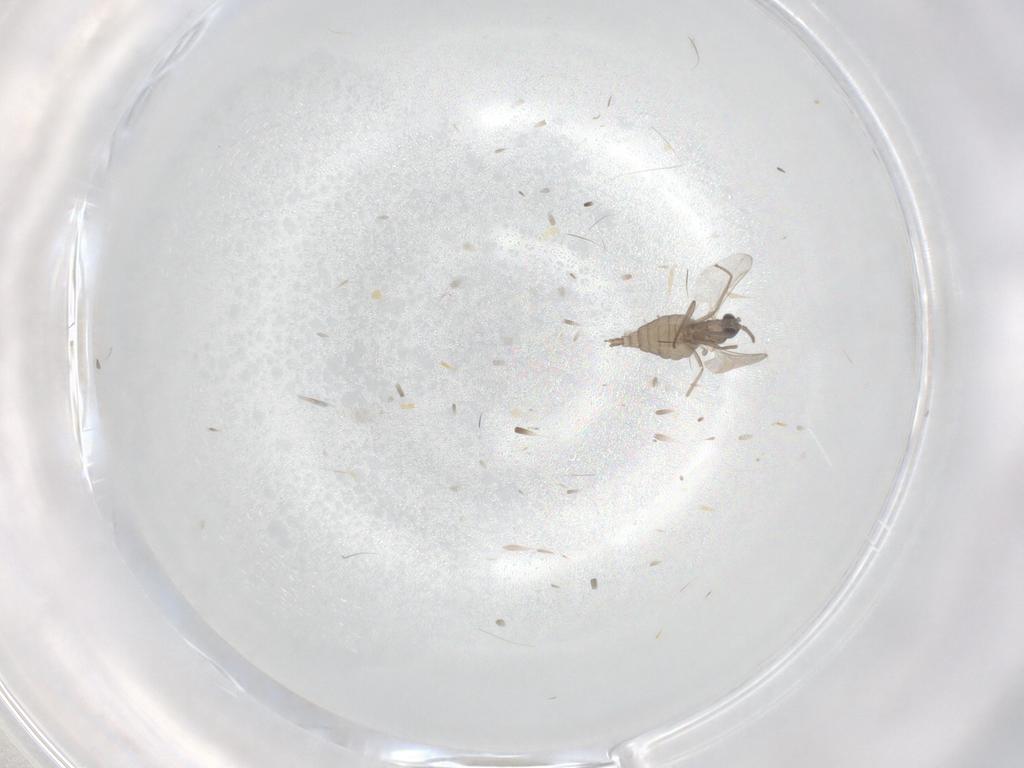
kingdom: Animalia
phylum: Arthropoda
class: Insecta
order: Diptera
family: Cecidomyiidae
